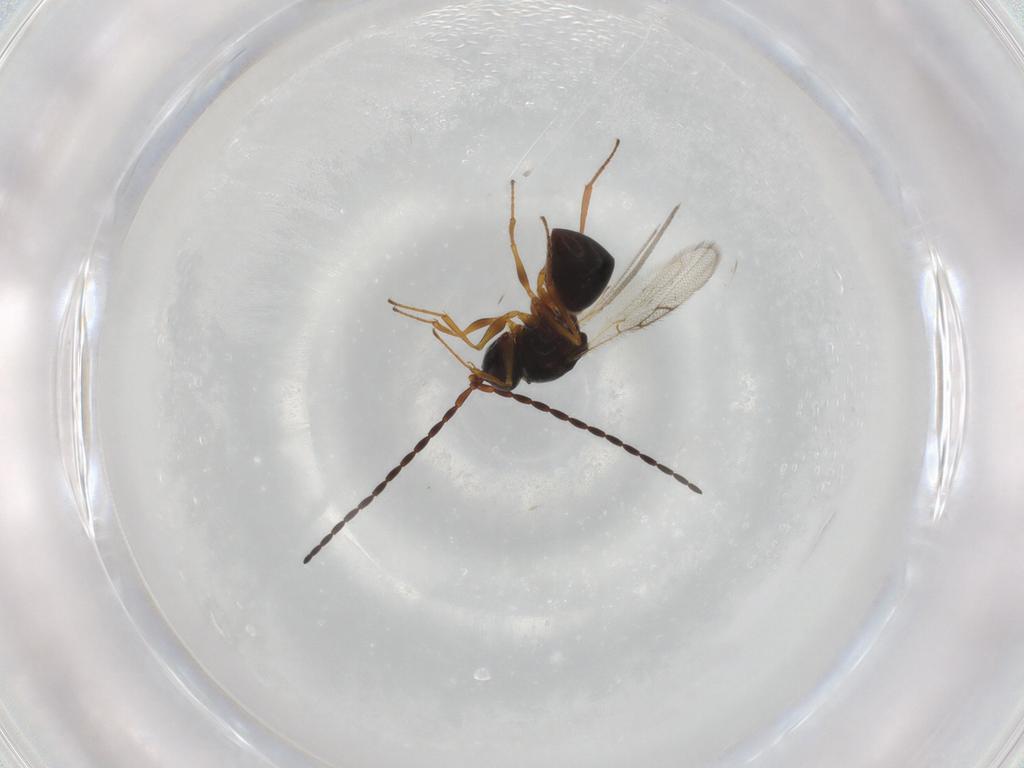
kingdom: Animalia
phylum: Arthropoda
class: Insecta
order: Hymenoptera
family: Figitidae
